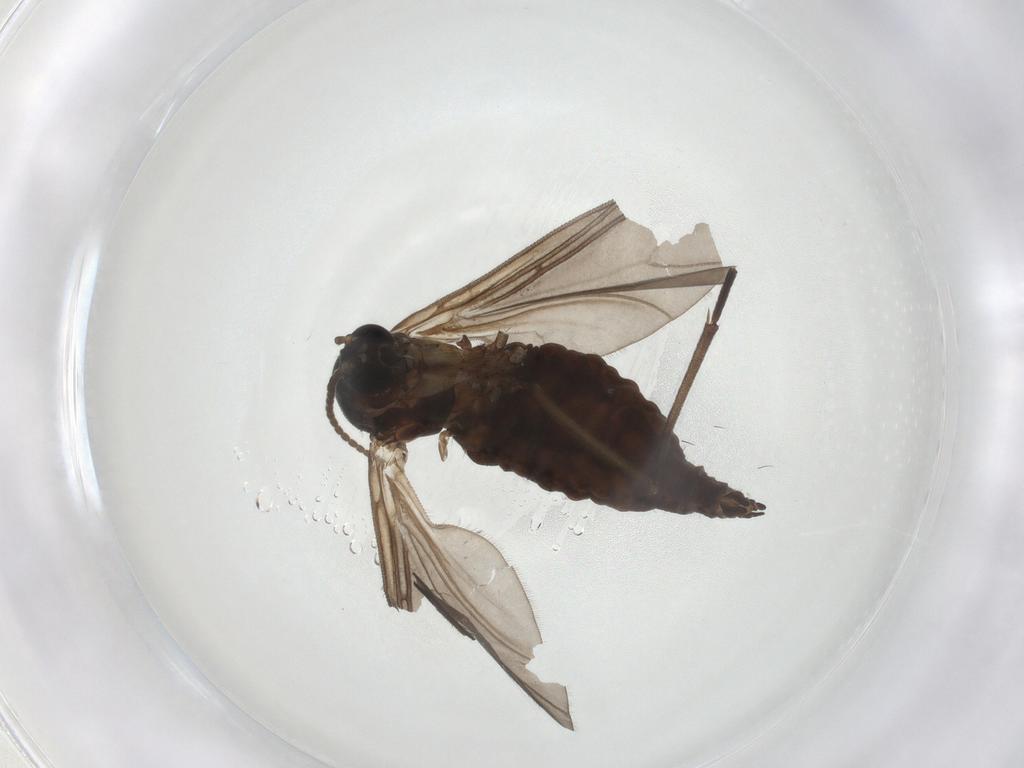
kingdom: Animalia
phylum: Arthropoda
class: Insecta
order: Diptera
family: Sciaridae
